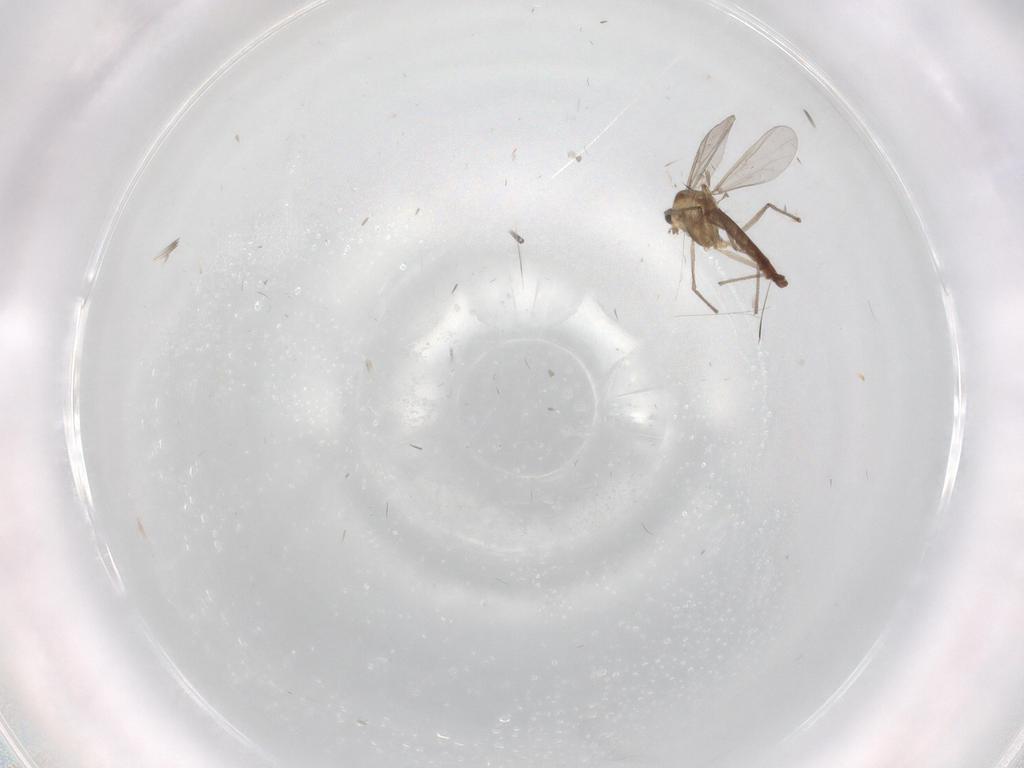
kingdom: Animalia
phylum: Arthropoda
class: Insecta
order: Diptera
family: Chironomidae
